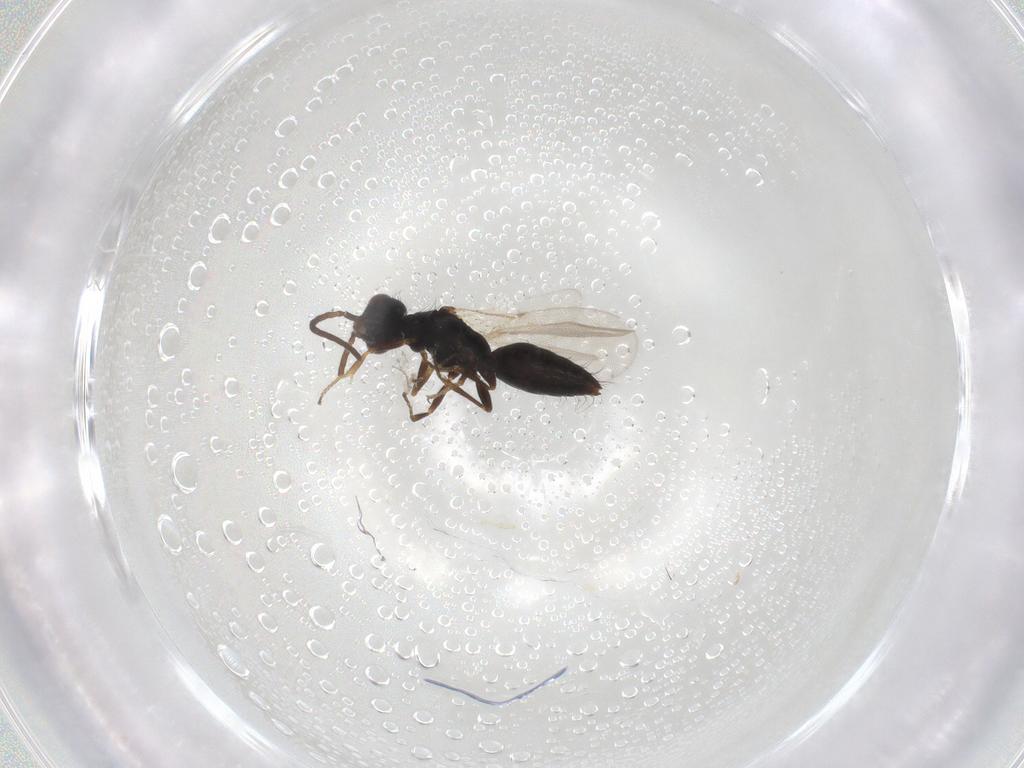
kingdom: Animalia
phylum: Arthropoda
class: Insecta
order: Hymenoptera
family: Bethylidae
